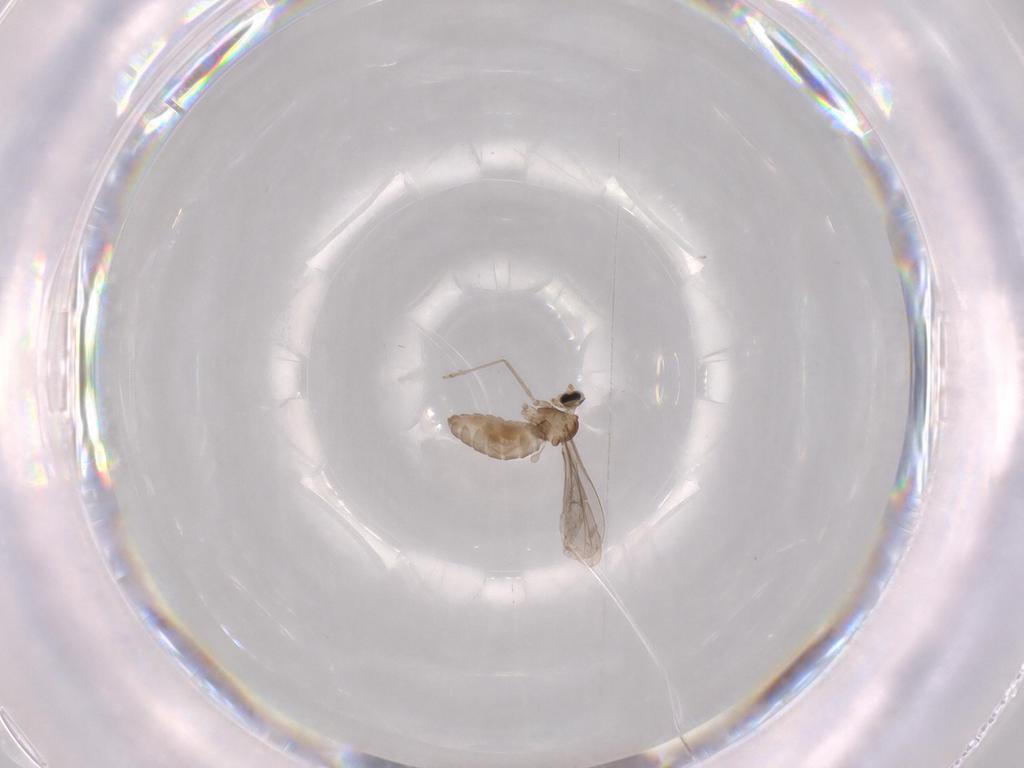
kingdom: Animalia
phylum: Arthropoda
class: Insecta
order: Diptera
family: Cecidomyiidae
